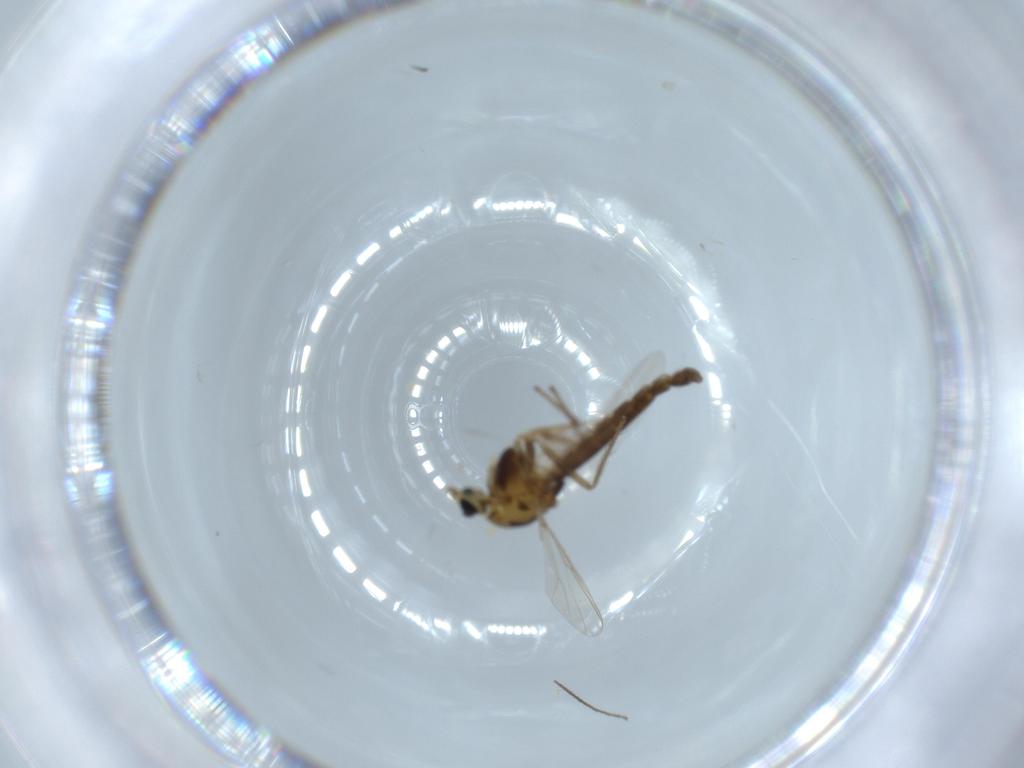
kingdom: Animalia
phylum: Arthropoda
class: Insecta
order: Diptera
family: Chironomidae
